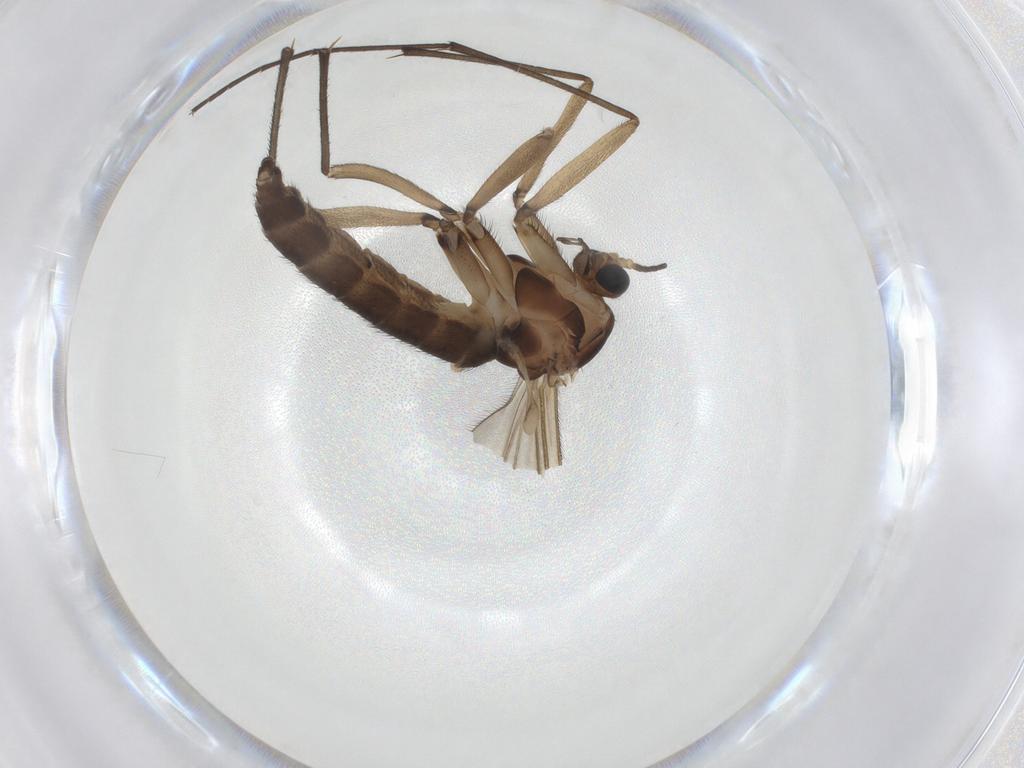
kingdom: Animalia
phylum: Arthropoda
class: Insecta
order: Diptera
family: Sciaridae
